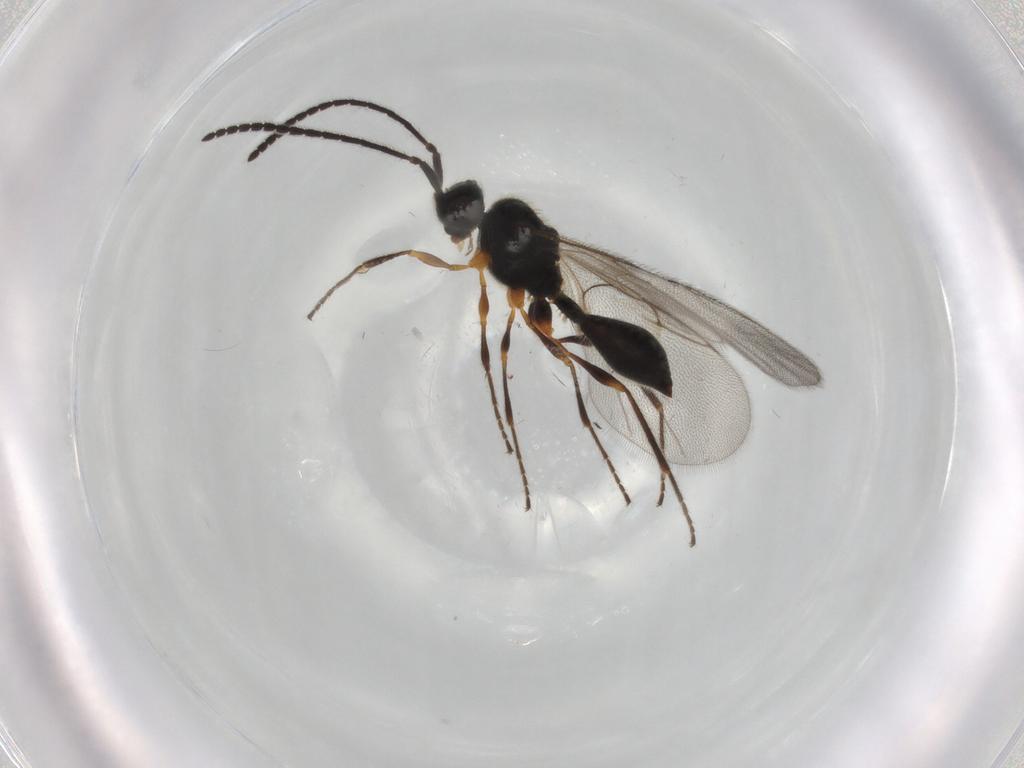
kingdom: Animalia
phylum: Arthropoda
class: Insecta
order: Hymenoptera
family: Diapriidae
